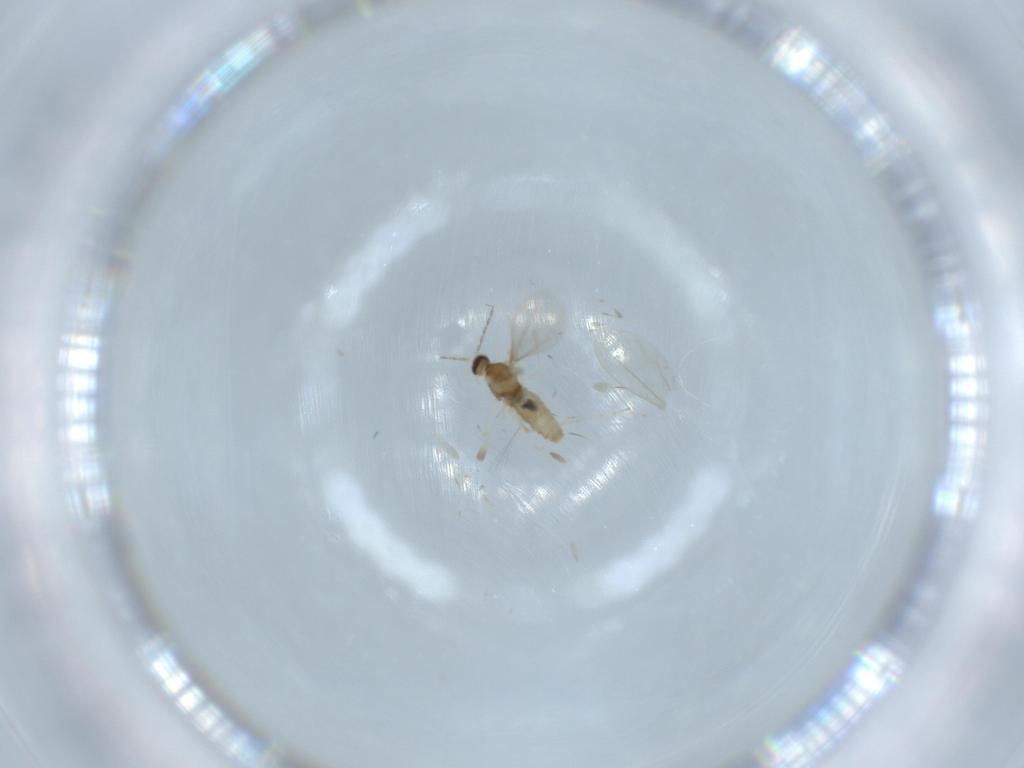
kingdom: Animalia
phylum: Arthropoda
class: Insecta
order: Diptera
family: Cecidomyiidae
